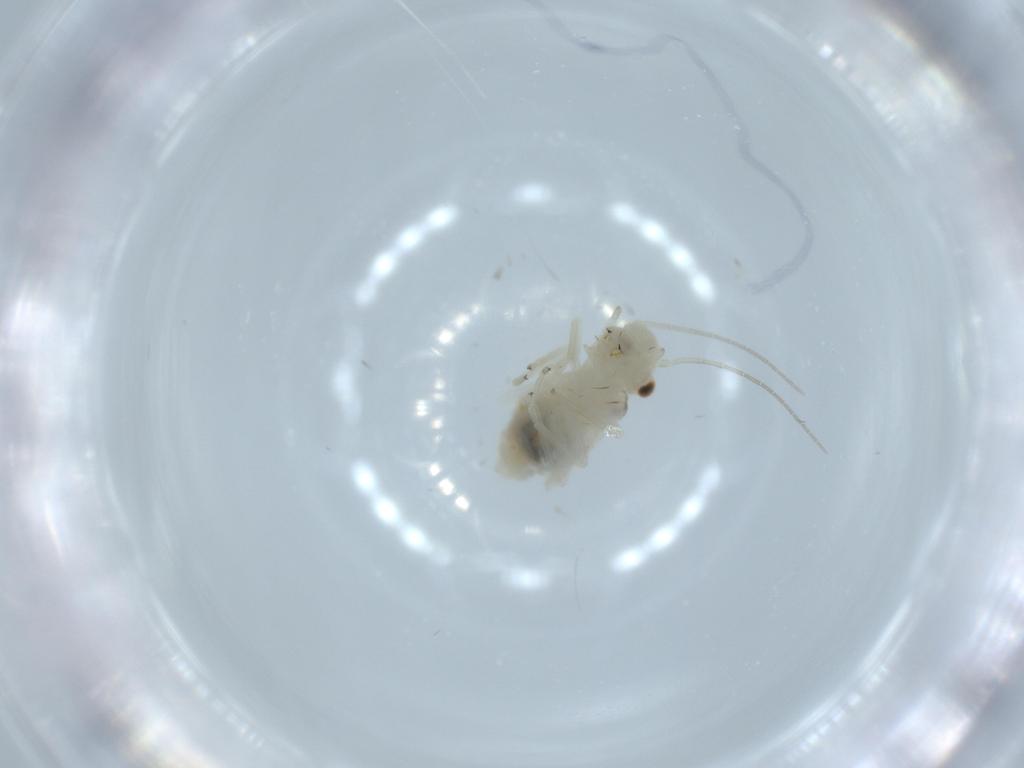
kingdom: Animalia
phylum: Arthropoda
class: Insecta
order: Psocodea
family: Caeciliusidae
